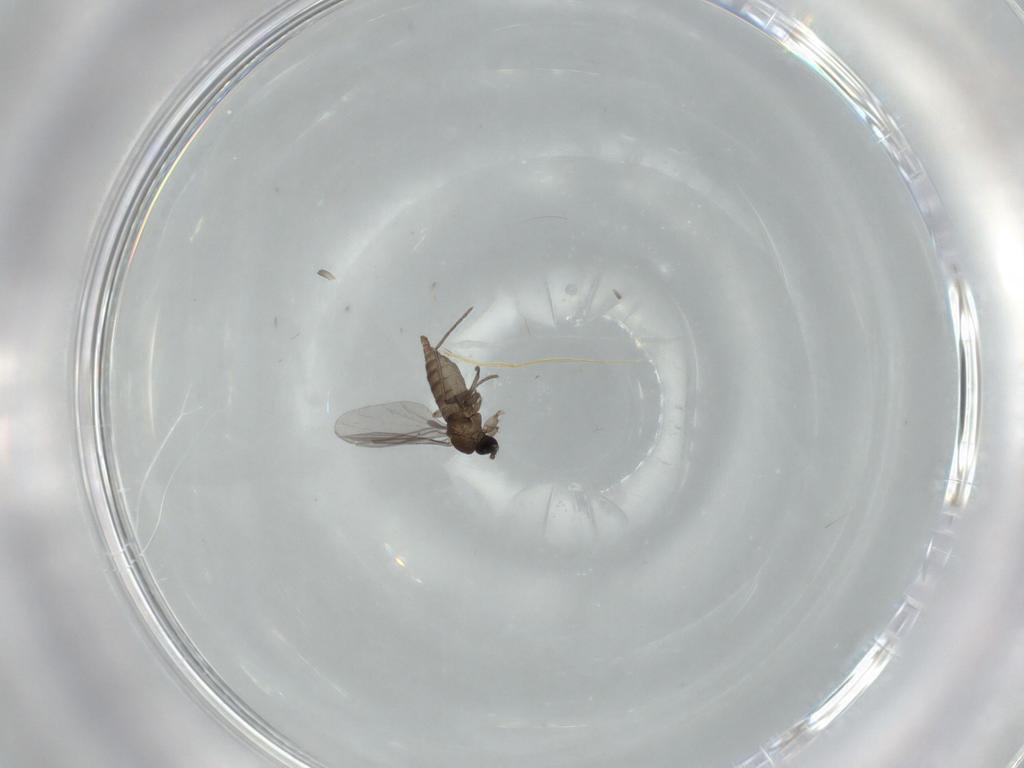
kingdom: Animalia
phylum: Arthropoda
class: Insecta
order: Diptera
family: Sciaridae
